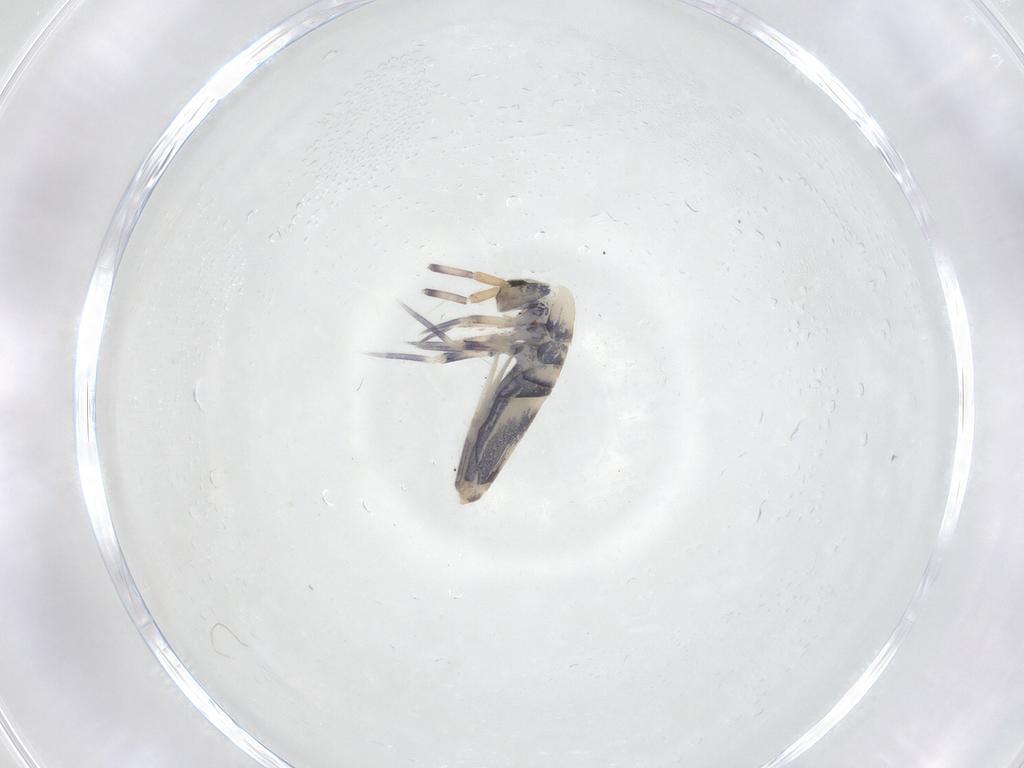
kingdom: Animalia
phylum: Arthropoda
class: Collembola
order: Entomobryomorpha
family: Entomobryidae
